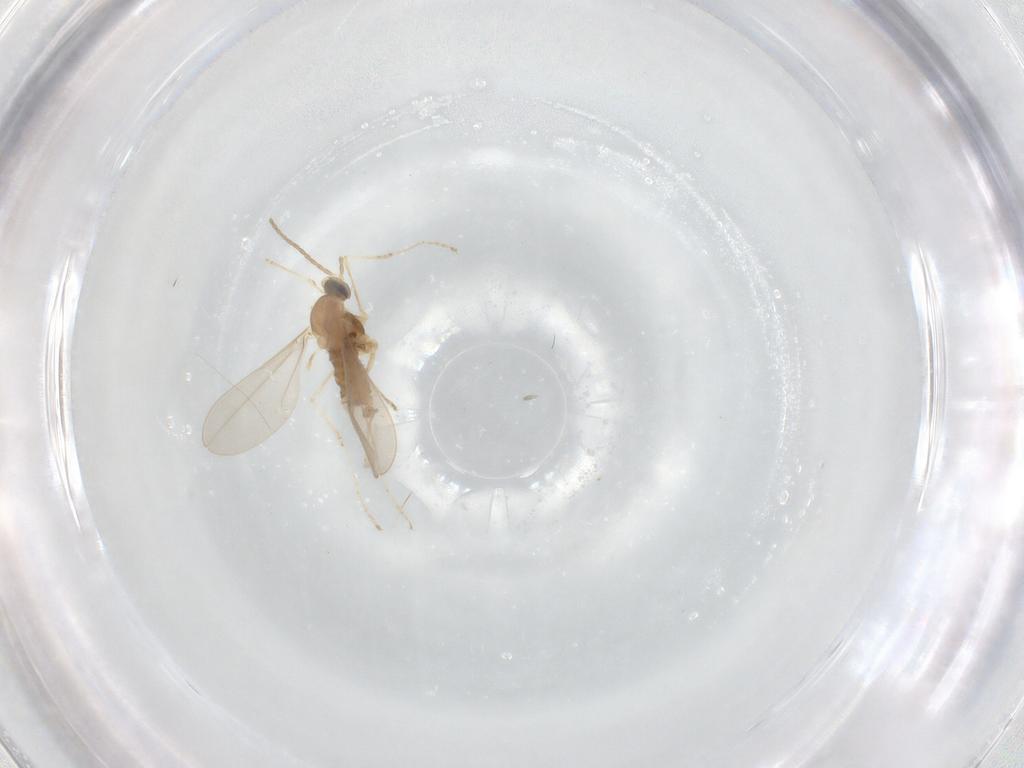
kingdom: Animalia
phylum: Arthropoda
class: Insecta
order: Diptera
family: Cecidomyiidae
